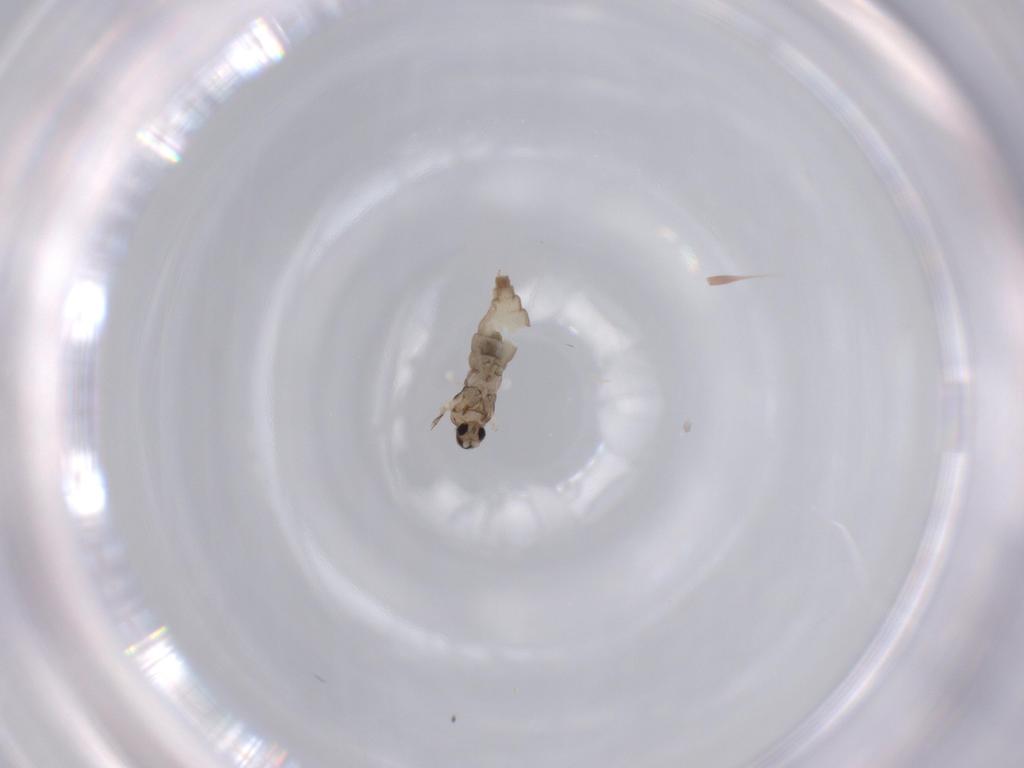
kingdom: Animalia
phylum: Arthropoda
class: Insecta
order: Diptera
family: Cecidomyiidae
